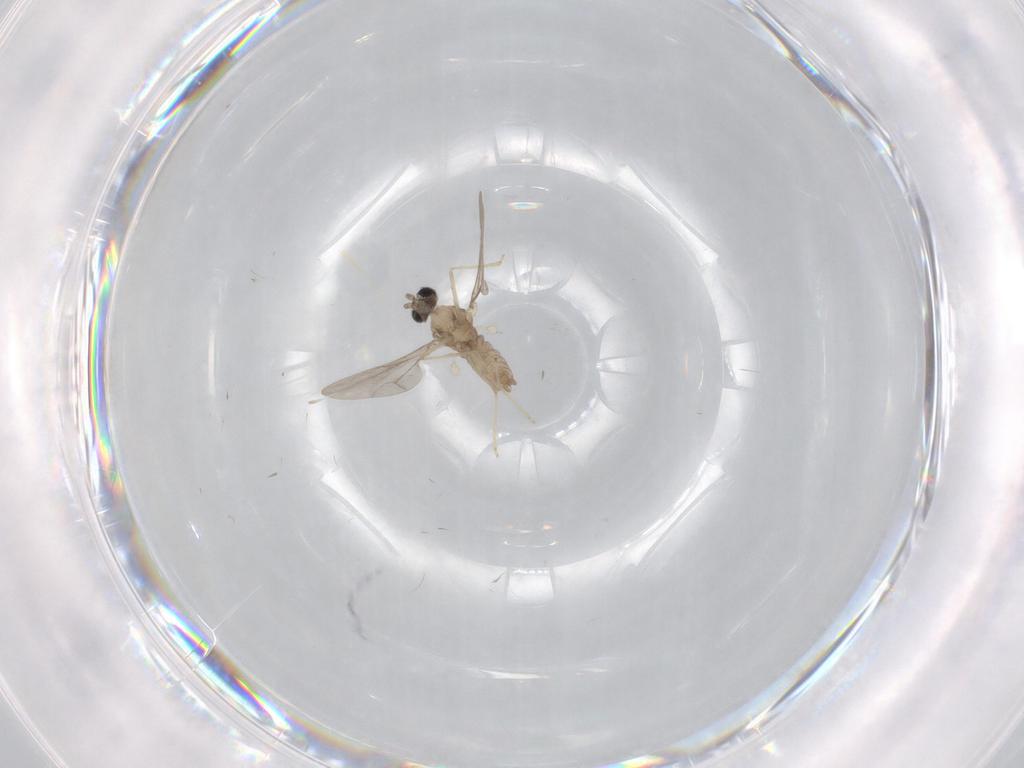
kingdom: Animalia
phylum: Arthropoda
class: Insecta
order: Diptera
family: Cecidomyiidae
